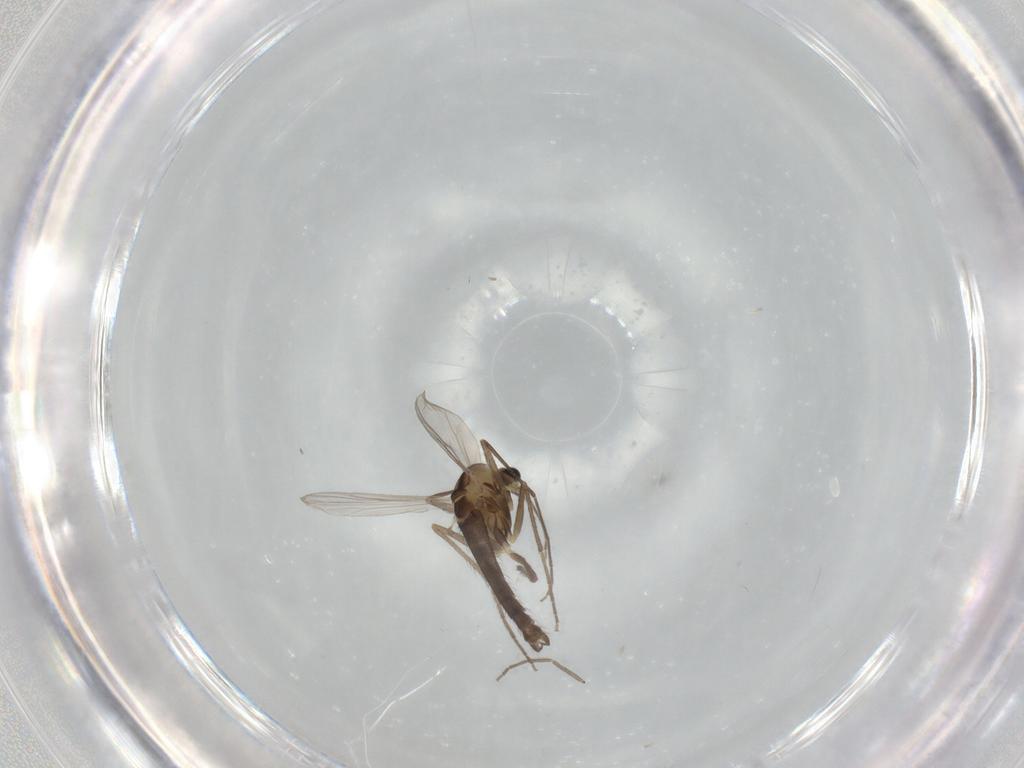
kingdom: Animalia
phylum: Arthropoda
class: Insecta
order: Diptera
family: Chironomidae
